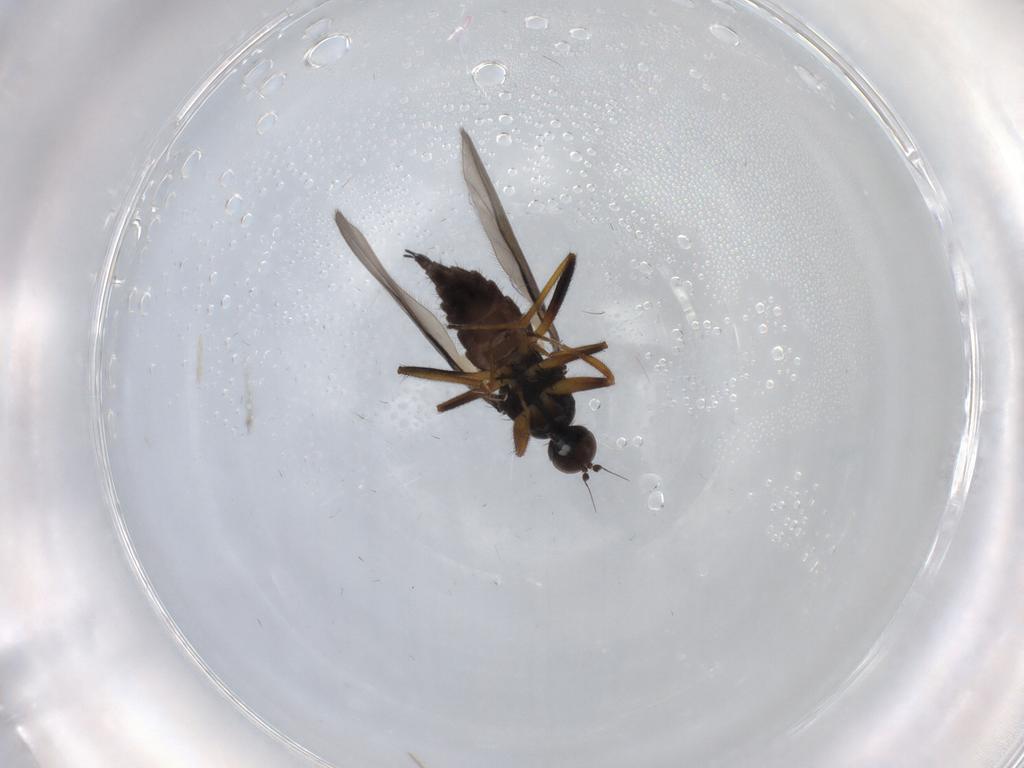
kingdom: Animalia
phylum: Arthropoda
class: Insecta
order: Diptera
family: Hybotidae
